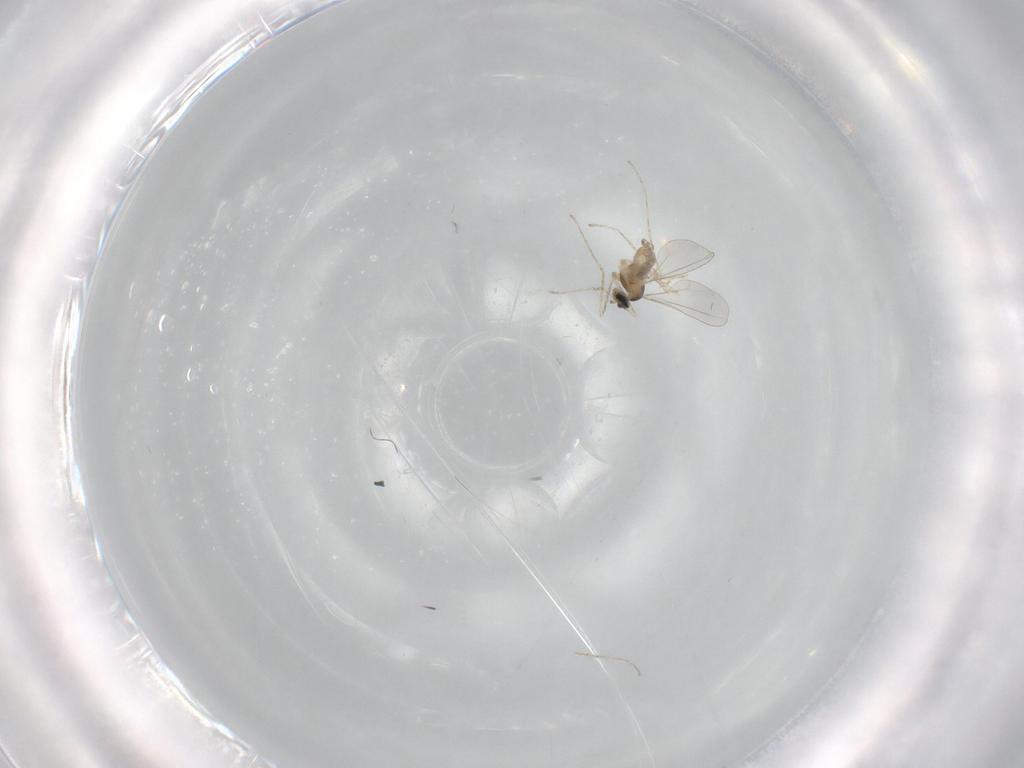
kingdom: Animalia
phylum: Arthropoda
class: Insecta
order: Diptera
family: Cecidomyiidae
